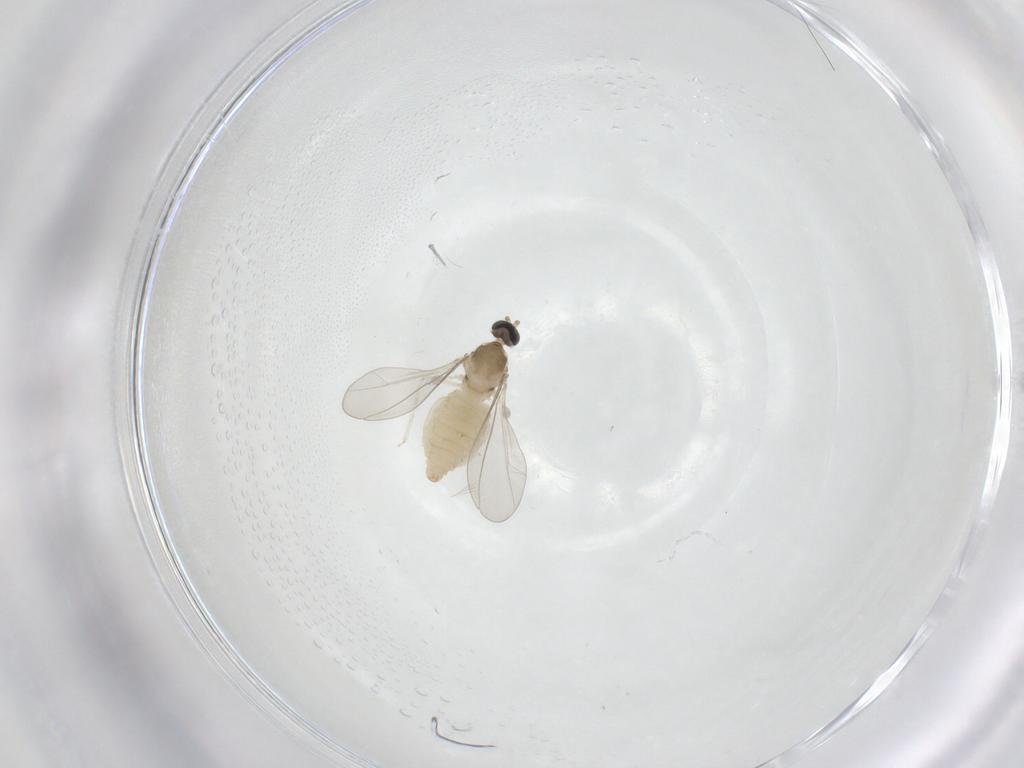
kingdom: Animalia
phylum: Arthropoda
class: Insecta
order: Diptera
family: Cecidomyiidae
